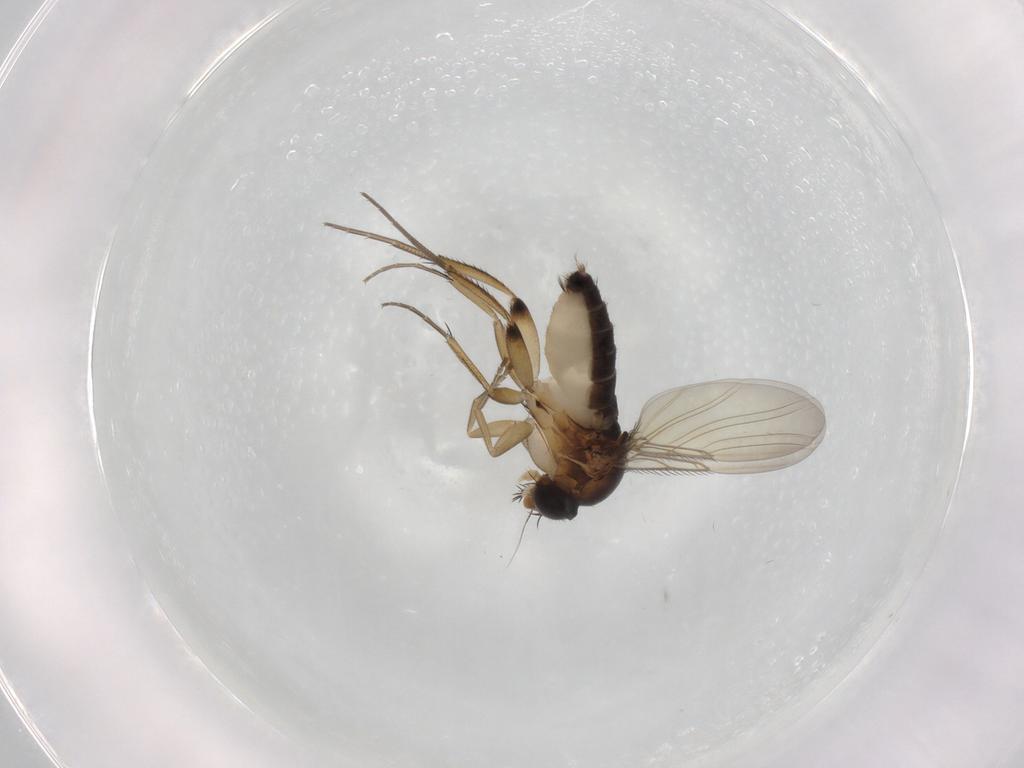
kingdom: Animalia
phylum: Arthropoda
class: Insecta
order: Diptera
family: Phoridae
